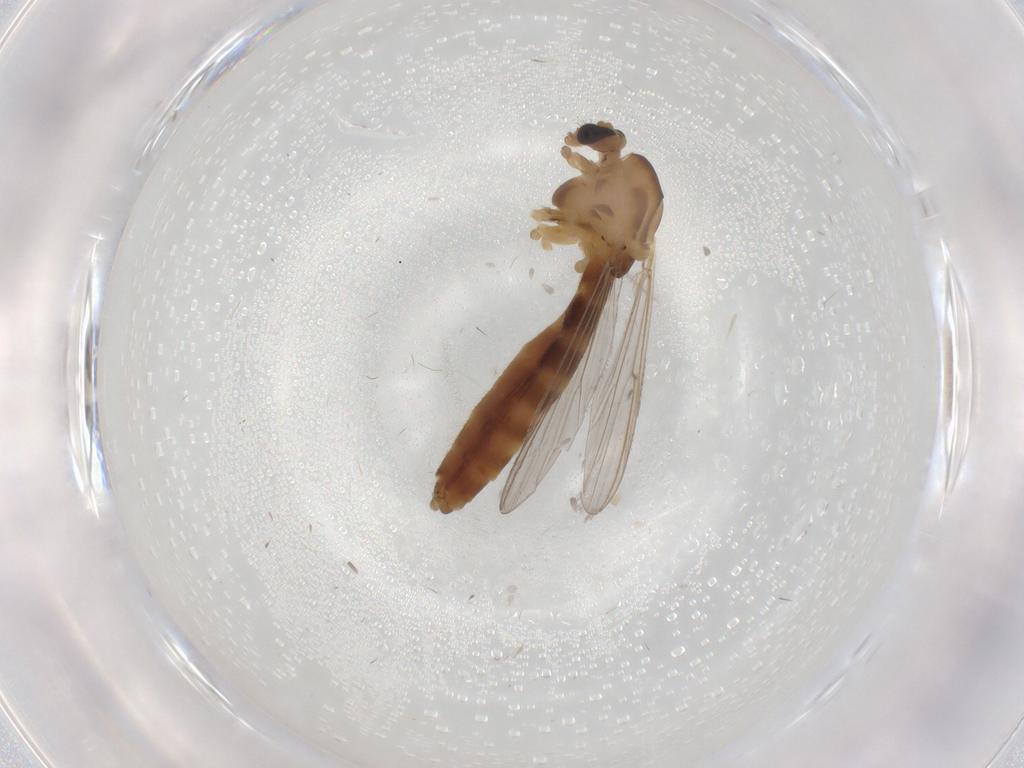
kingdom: Animalia
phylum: Arthropoda
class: Insecta
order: Diptera
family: Chironomidae
